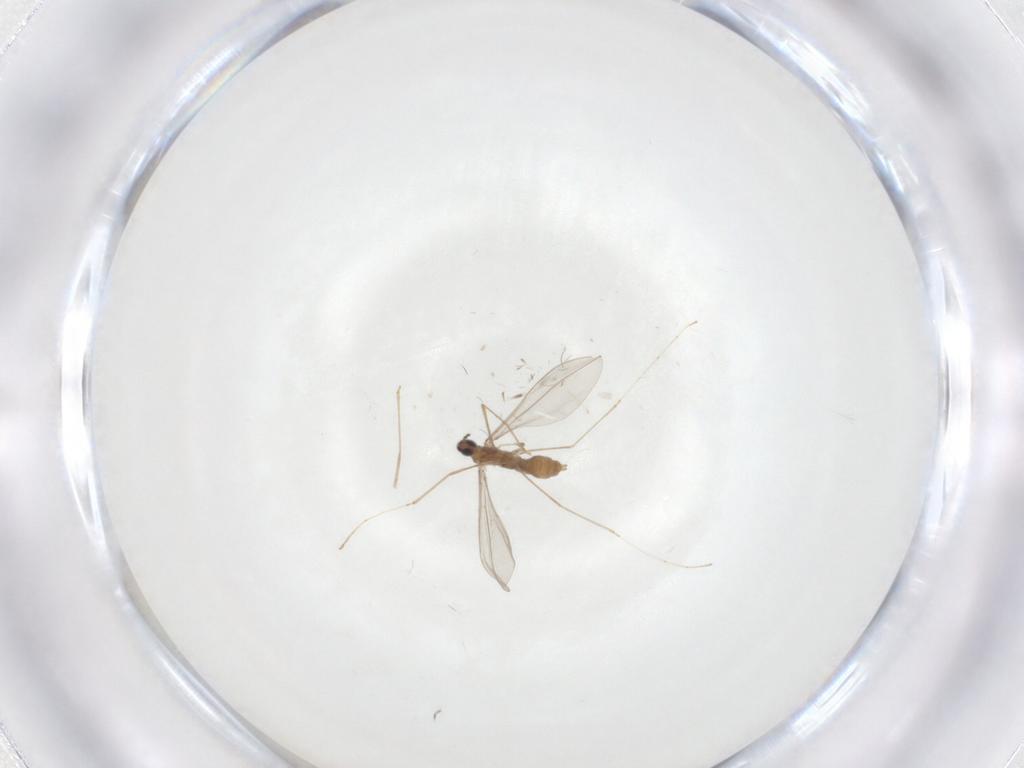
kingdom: Animalia
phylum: Arthropoda
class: Insecta
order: Diptera
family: Cecidomyiidae
